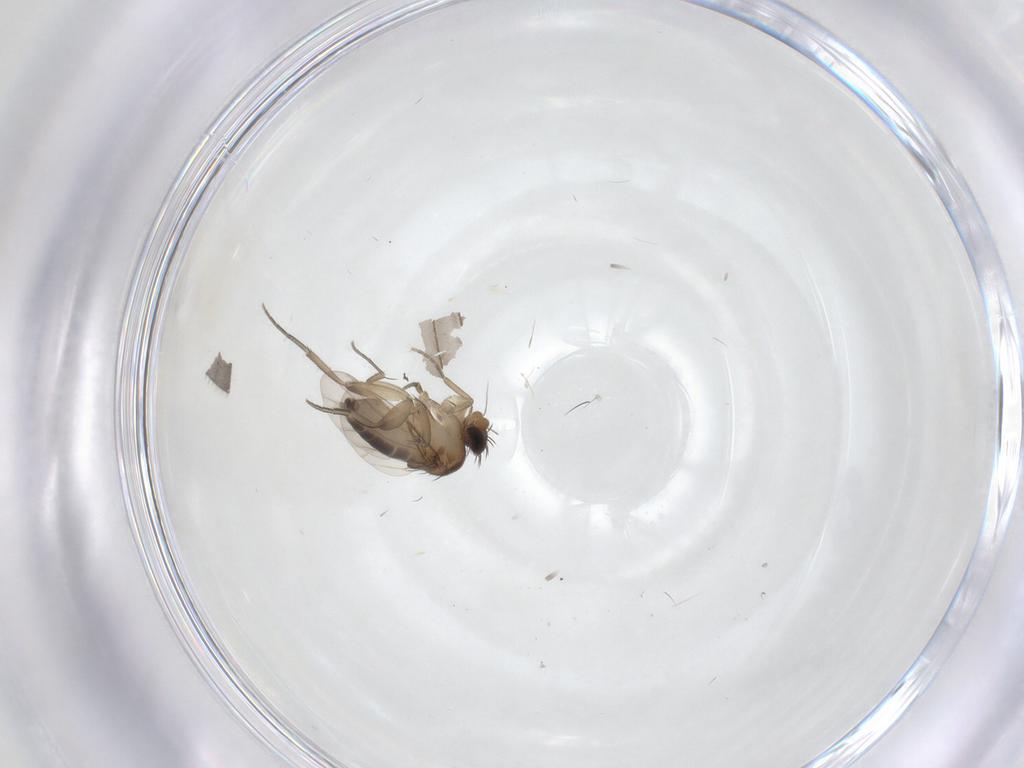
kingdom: Animalia
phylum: Arthropoda
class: Insecta
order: Diptera
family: Phoridae
